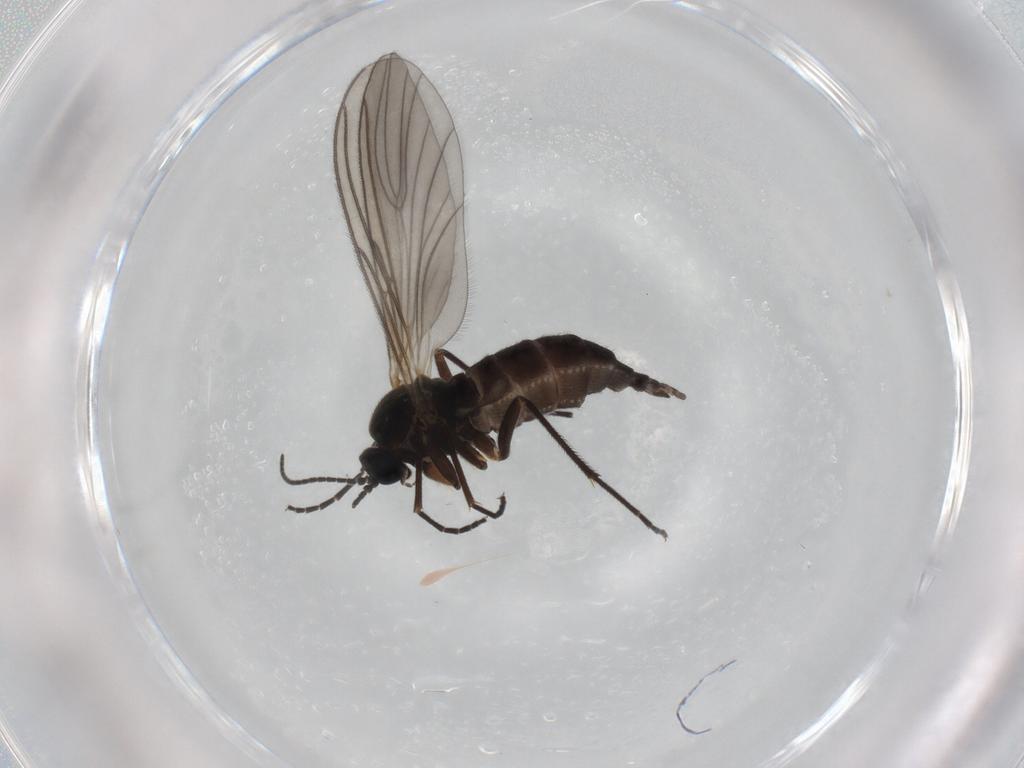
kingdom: Animalia
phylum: Arthropoda
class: Insecta
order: Diptera
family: Sciaridae
